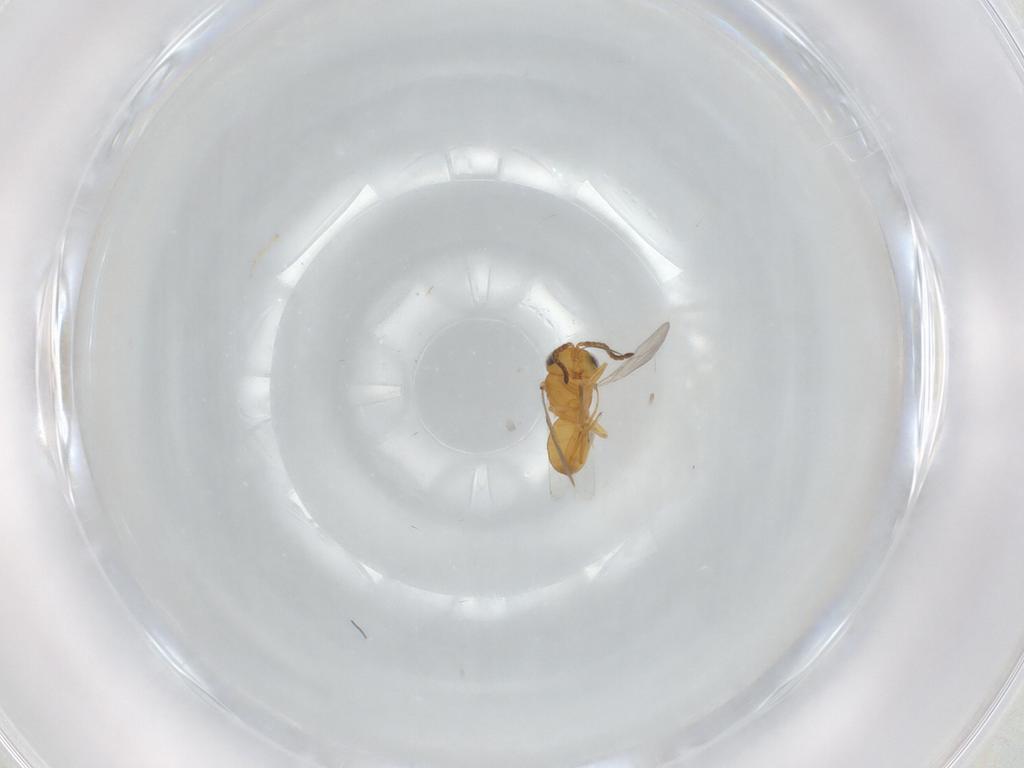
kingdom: Animalia
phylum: Arthropoda
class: Insecta
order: Hymenoptera
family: Scelionidae
